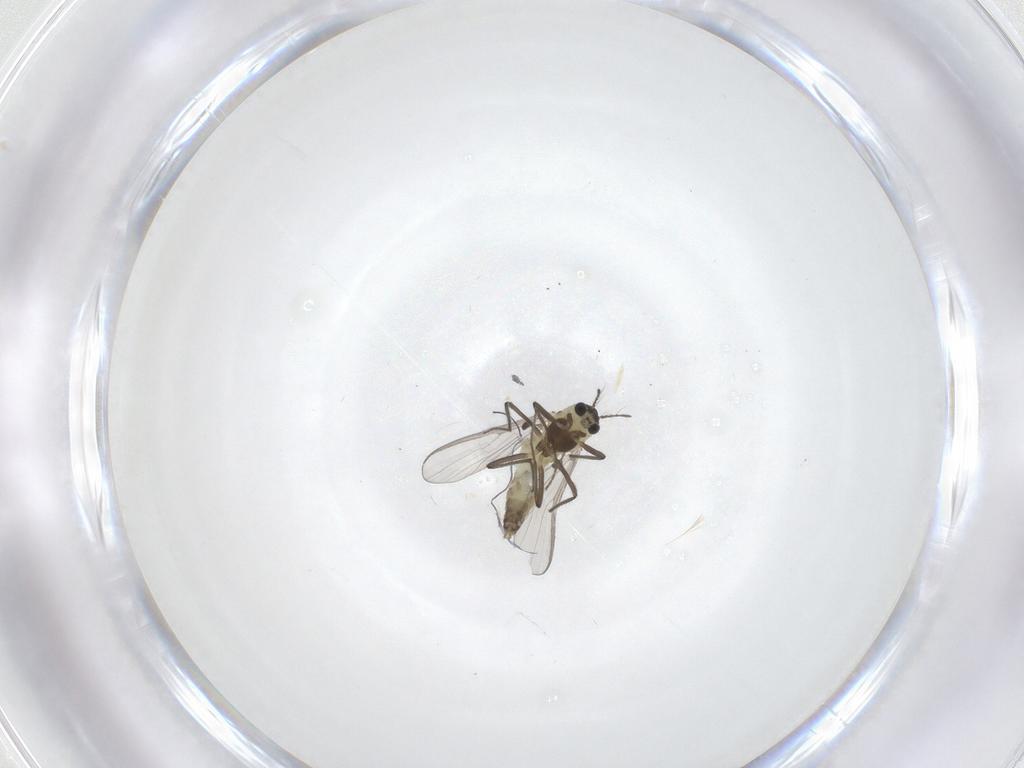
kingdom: Animalia
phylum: Arthropoda
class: Insecta
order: Diptera
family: Chironomidae
